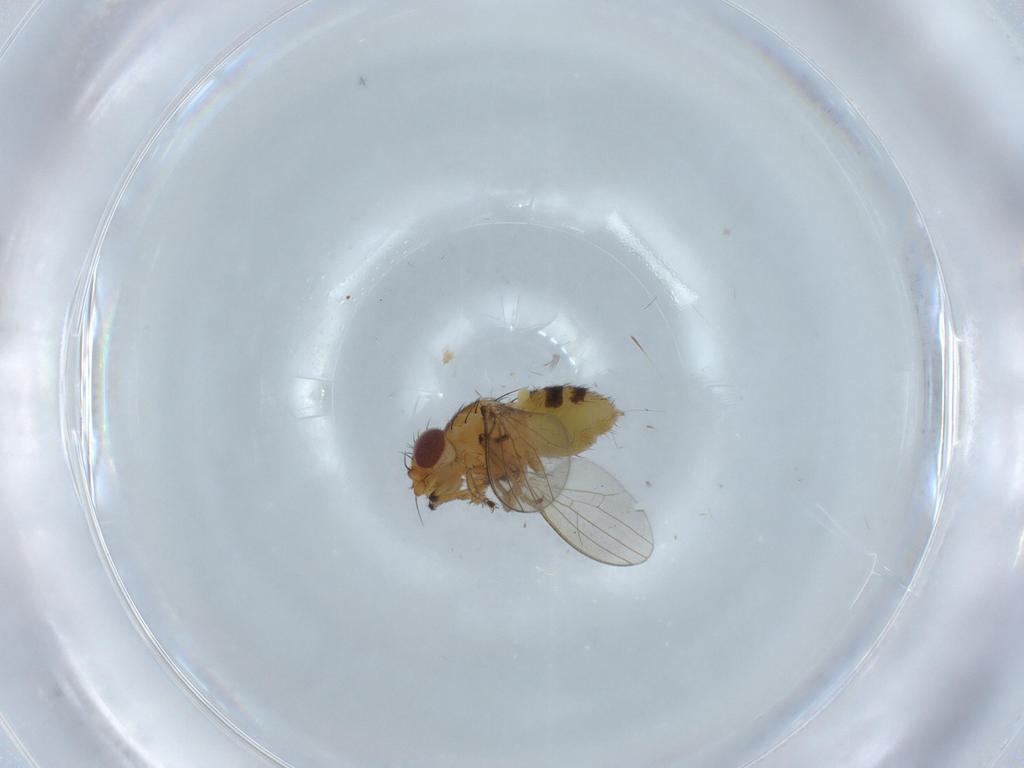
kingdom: Animalia
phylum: Arthropoda
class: Insecta
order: Diptera
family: Milichiidae
